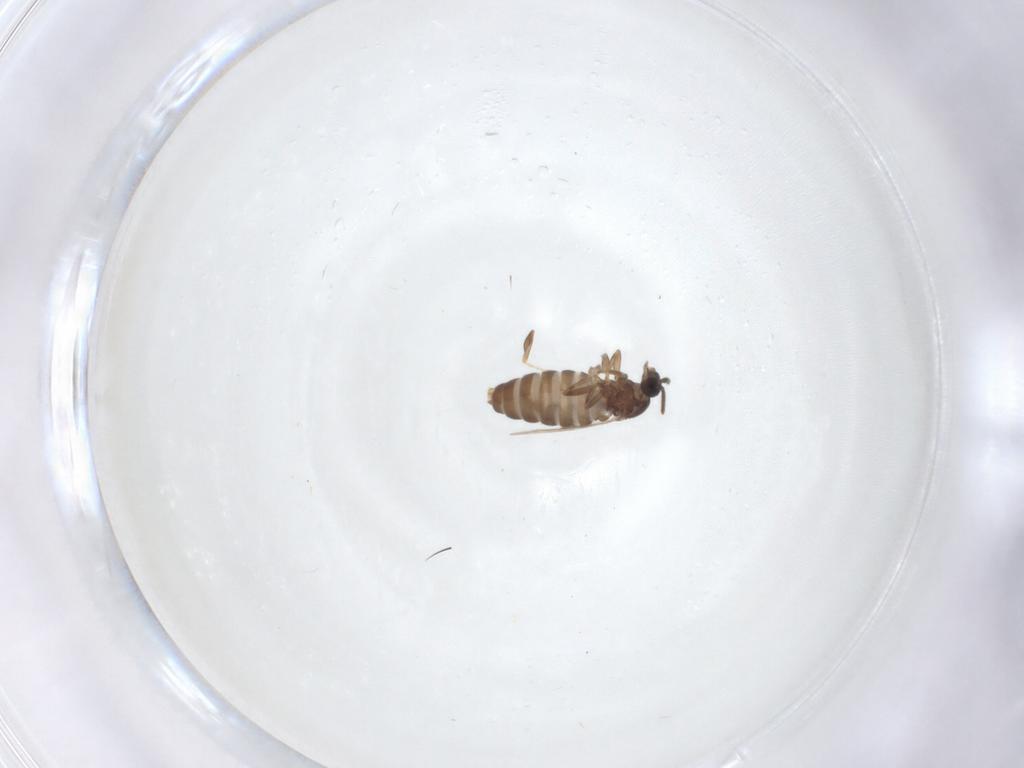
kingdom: Animalia
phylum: Arthropoda
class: Insecta
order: Diptera
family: Scatopsidae
